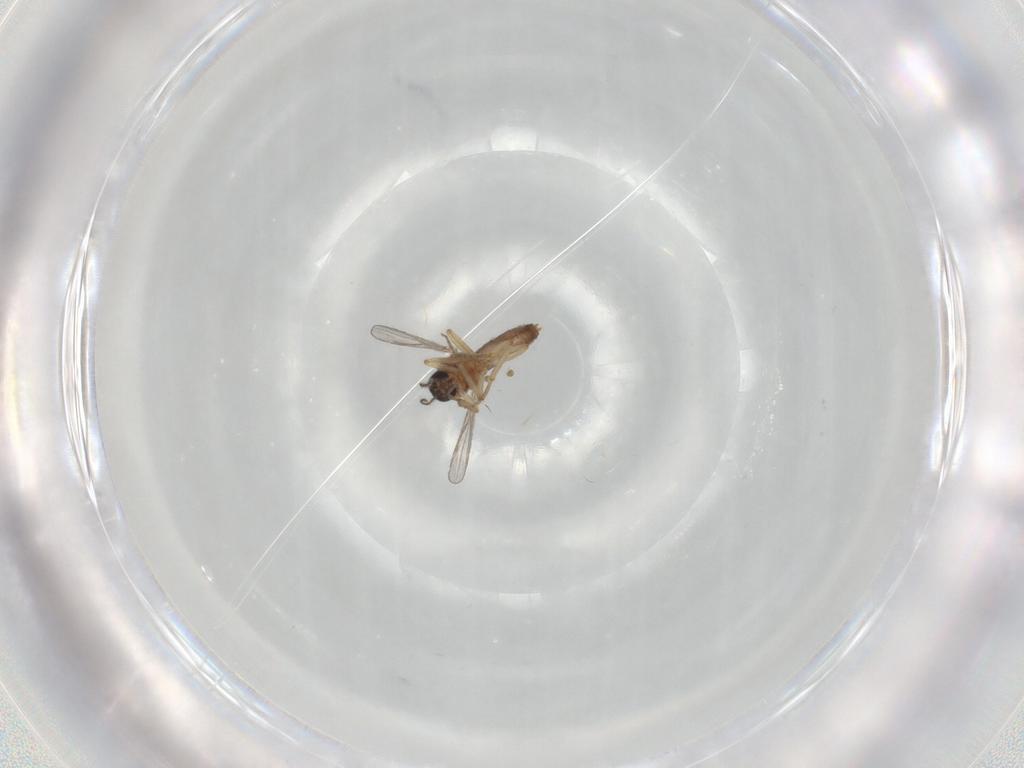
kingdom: Animalia
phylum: Arthropoda
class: Insecta
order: Diptera
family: Ceratopogonidae
